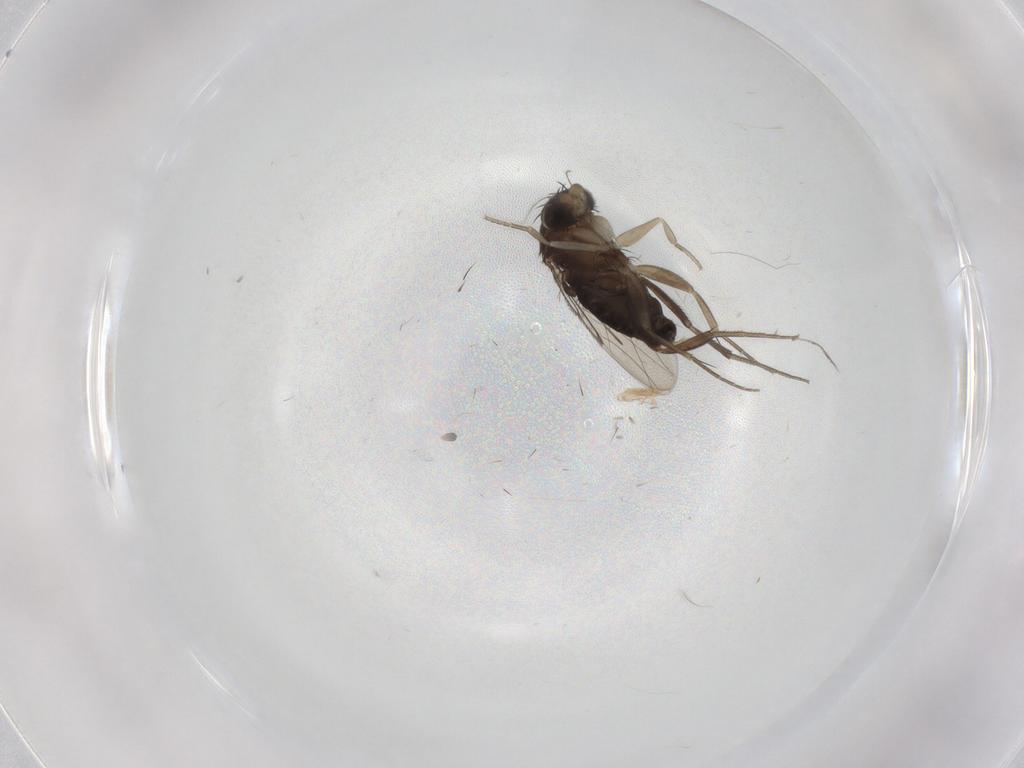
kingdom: Animalia
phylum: Arthropoda
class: Insecta
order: Diptera
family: Phoridae
